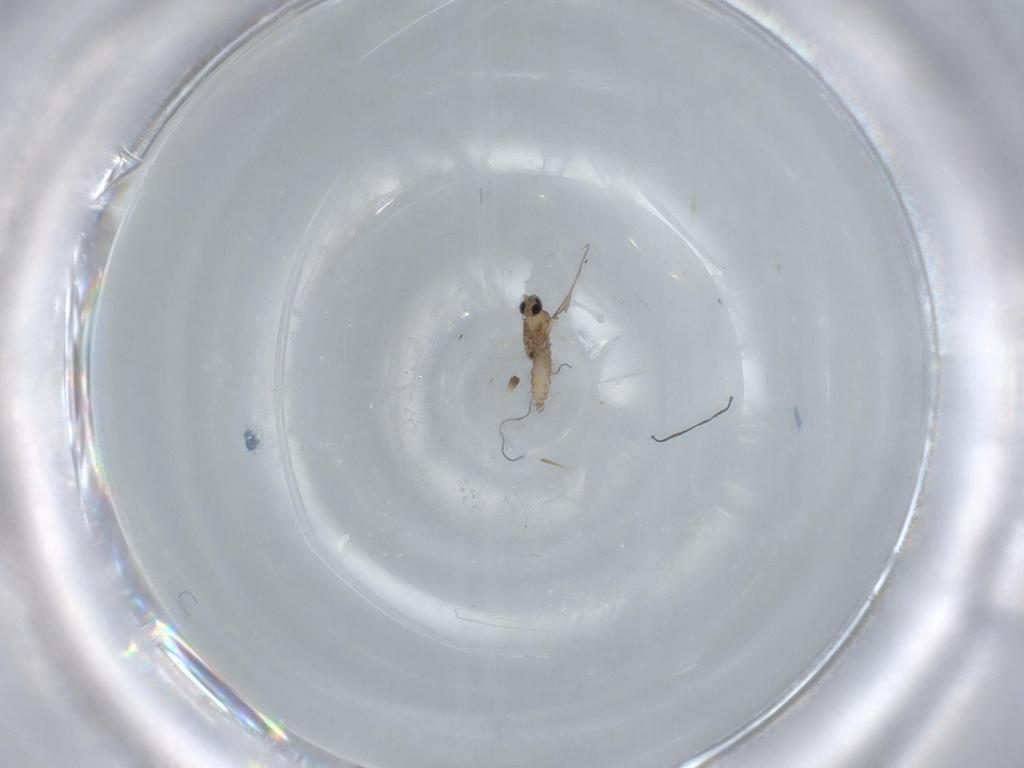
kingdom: Animalia
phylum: Arthropoda
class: Insecta
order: Diptera
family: Cecidomyiidae
